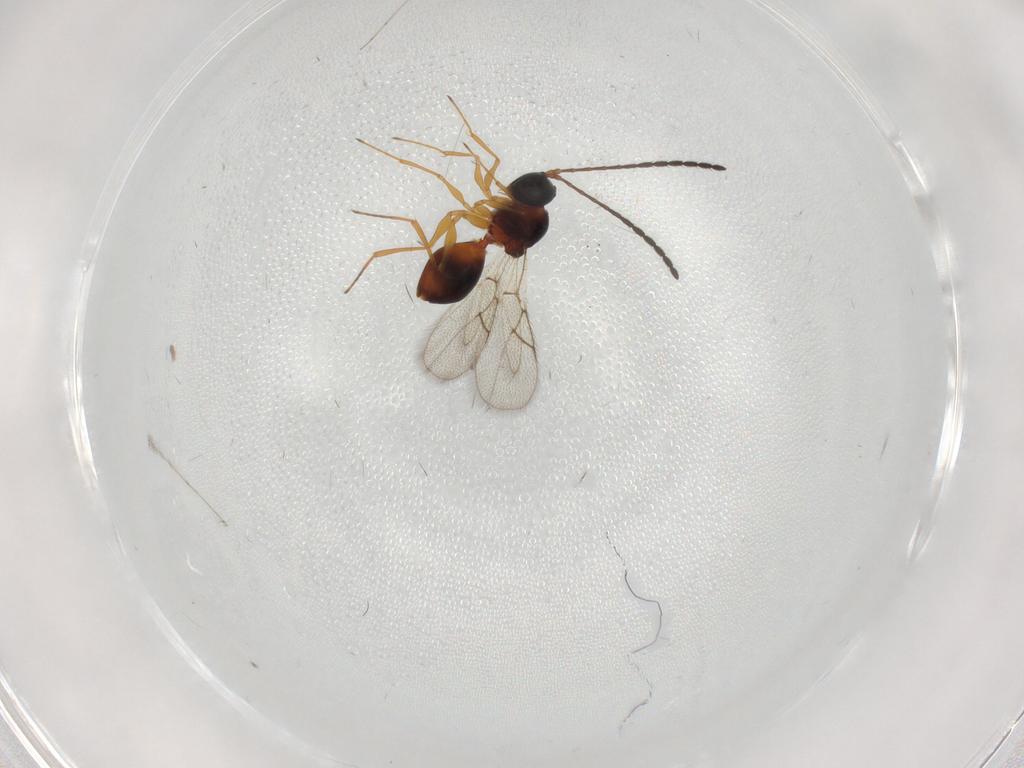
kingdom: Animalia
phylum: Arthropoda
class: Insecta
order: Hymenoptera
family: Figitidae
